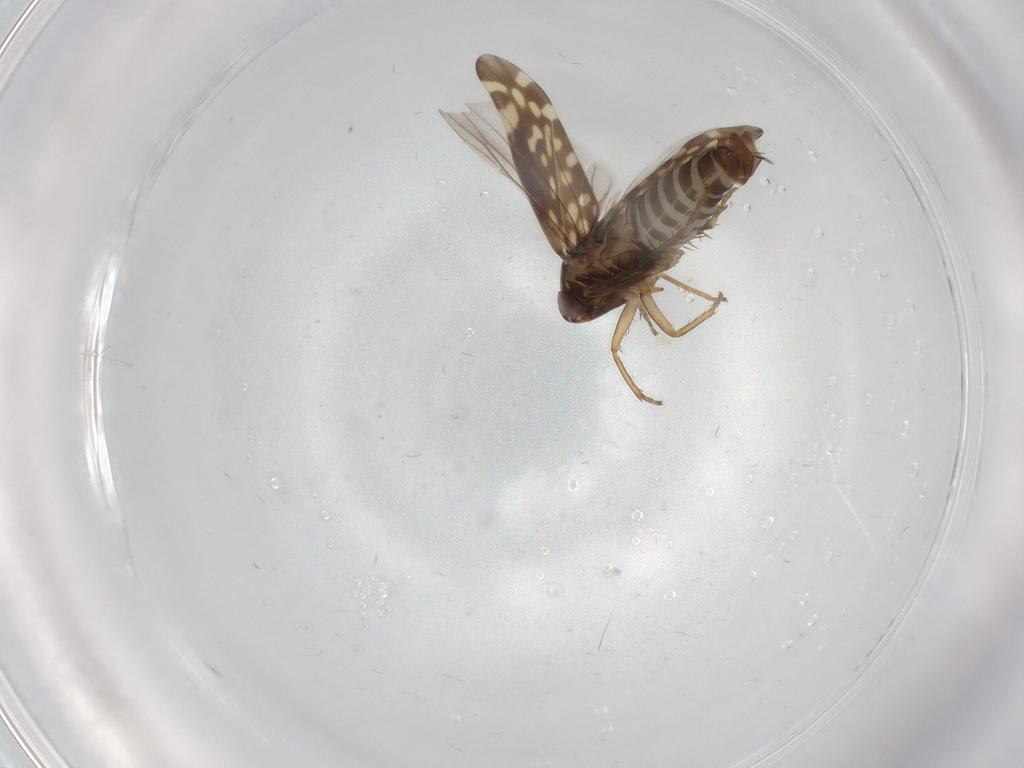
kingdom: Animalia
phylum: Arthropoda
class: Insecta
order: Hemiptera
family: Cicadellidae
